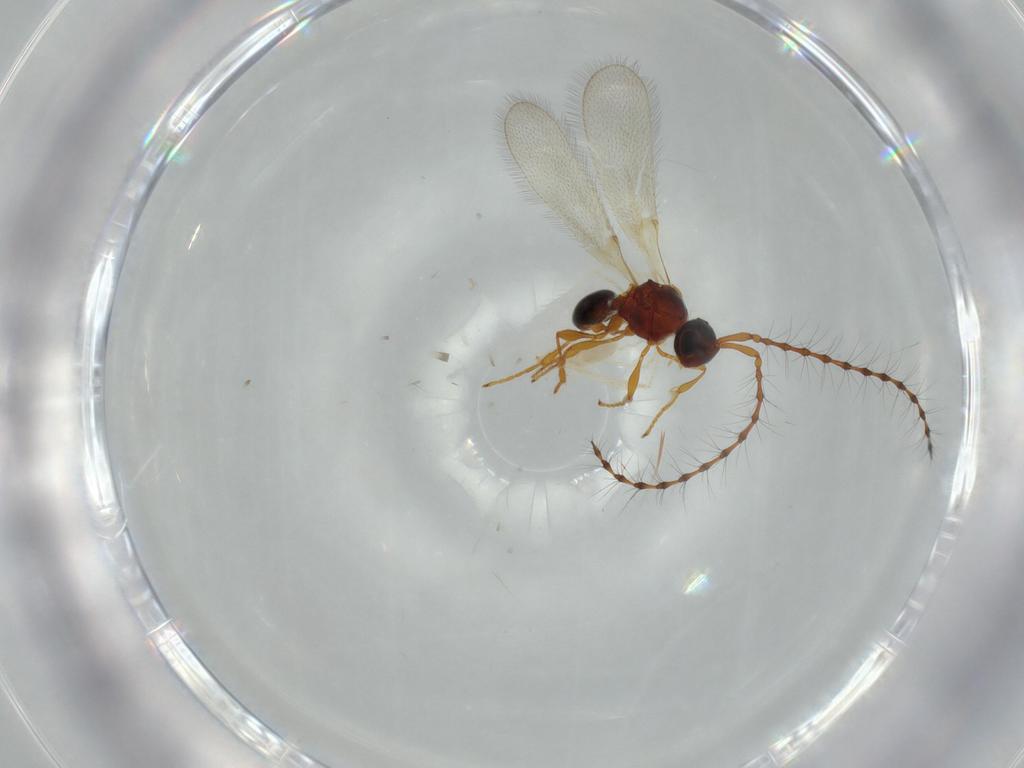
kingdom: Animalia
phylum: Arthropoda
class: Insecta
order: Hymenoptera
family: Diapriidae
